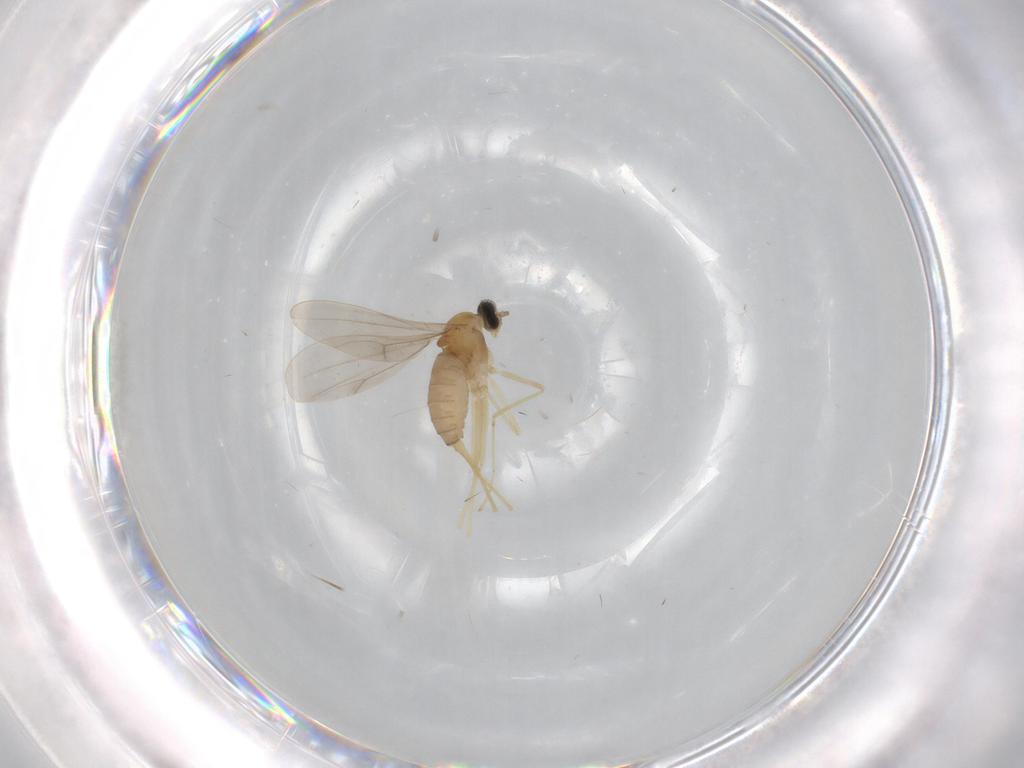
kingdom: Animalia
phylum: Arthropoda
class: Insecta
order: Diptera
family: Cecidomyiidae
